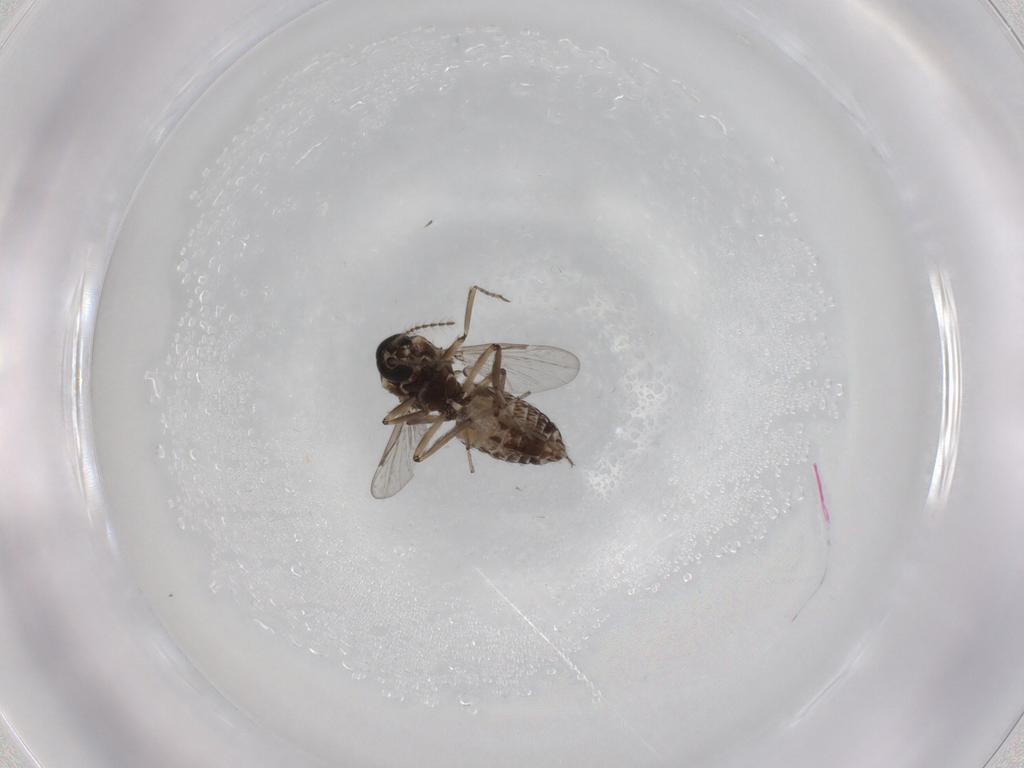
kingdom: Animalia
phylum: Arthropoda
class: Insecta
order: Diptera
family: Ceratopogonidae
